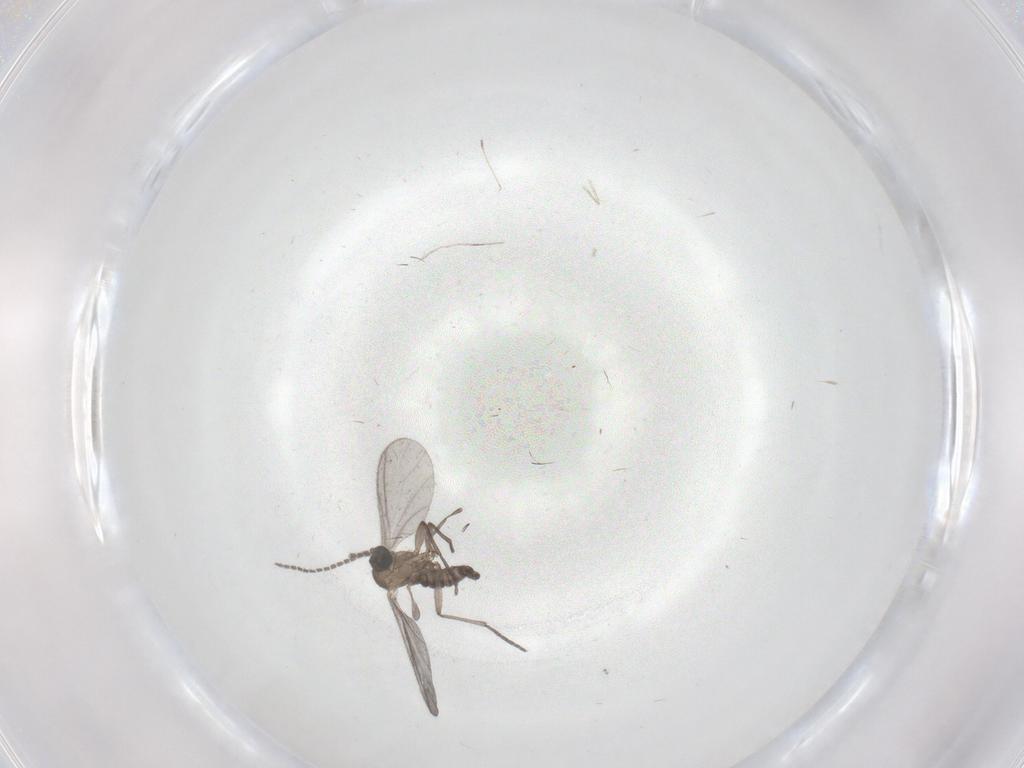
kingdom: Animalia
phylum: Arthropoda
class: Insecta
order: Diptera
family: Sciaridae
